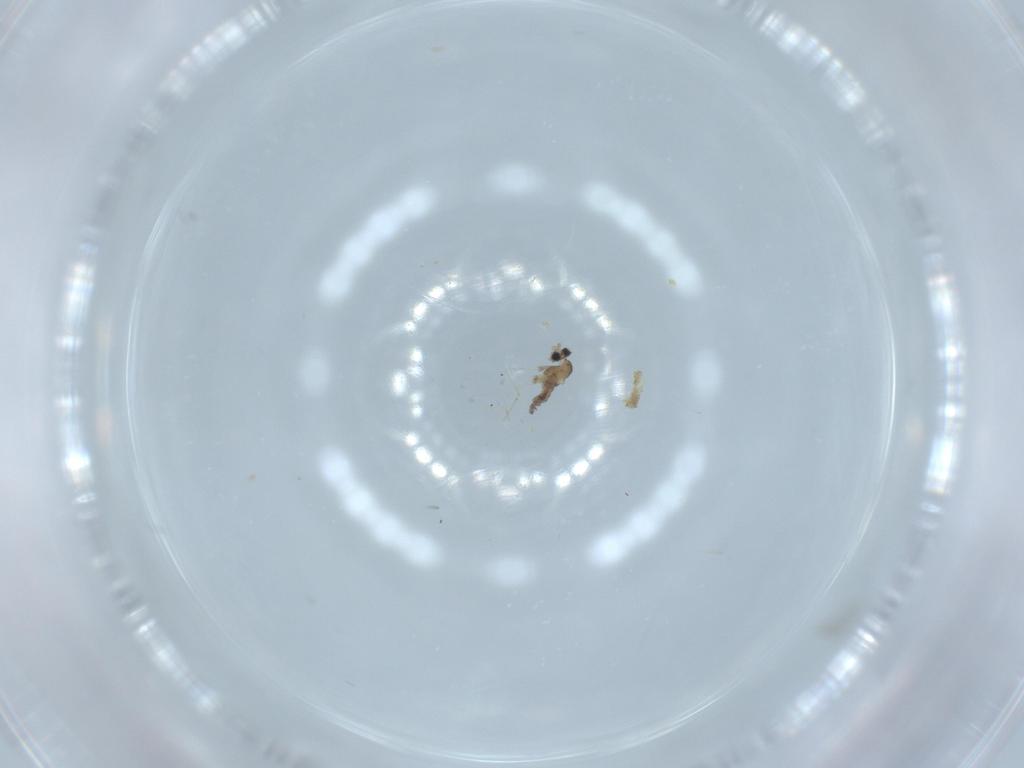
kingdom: Animalia
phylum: Arthropoda
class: Insecta
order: Diptera
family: Cecidomyiidae
